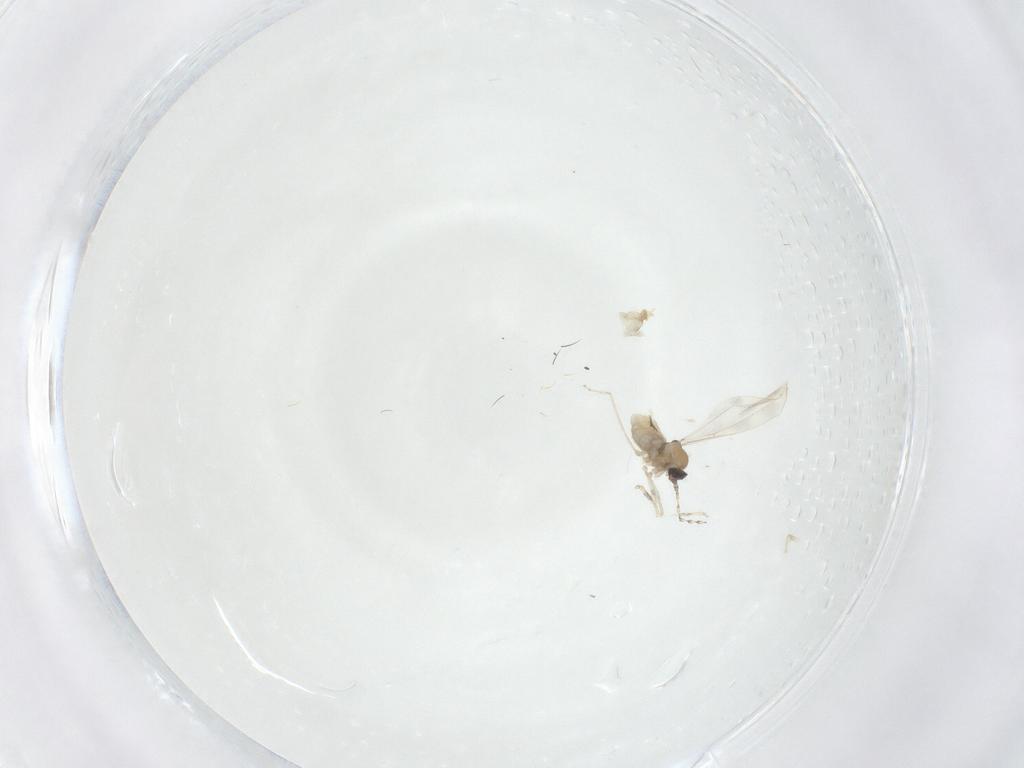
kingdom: Animalia
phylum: Arthropoda
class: Insecta
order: Diptera
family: Cecidomyiidae
